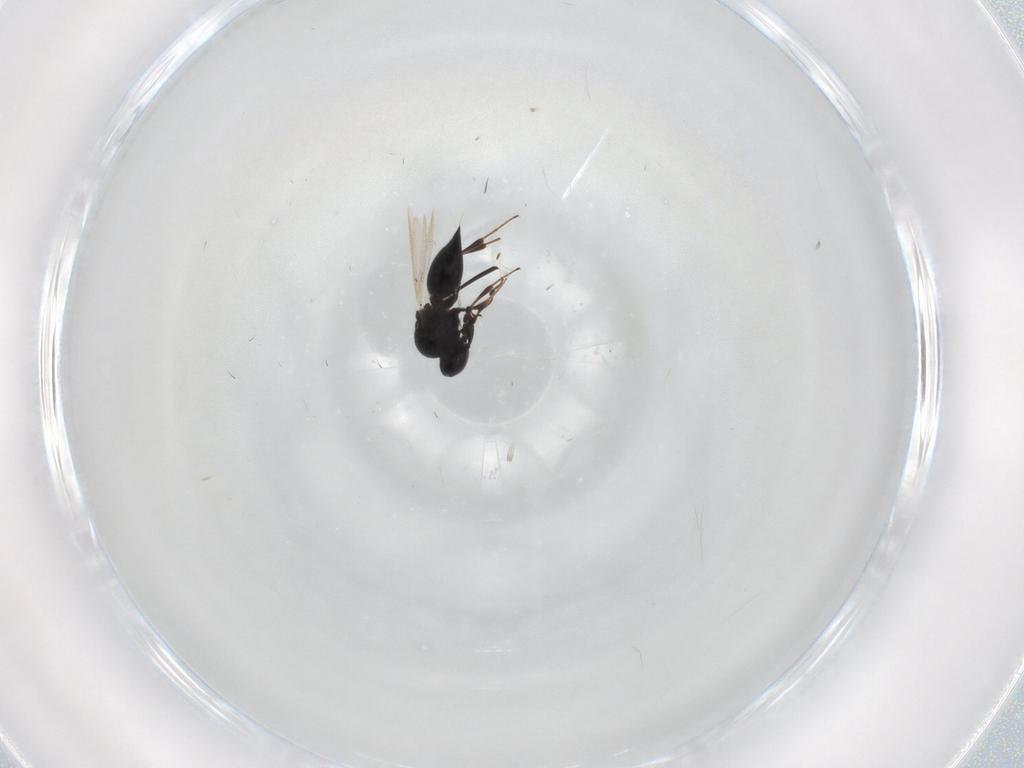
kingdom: Animalia
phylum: Arthropoda
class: Insecta
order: Hymenoptera
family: Platygastridae
